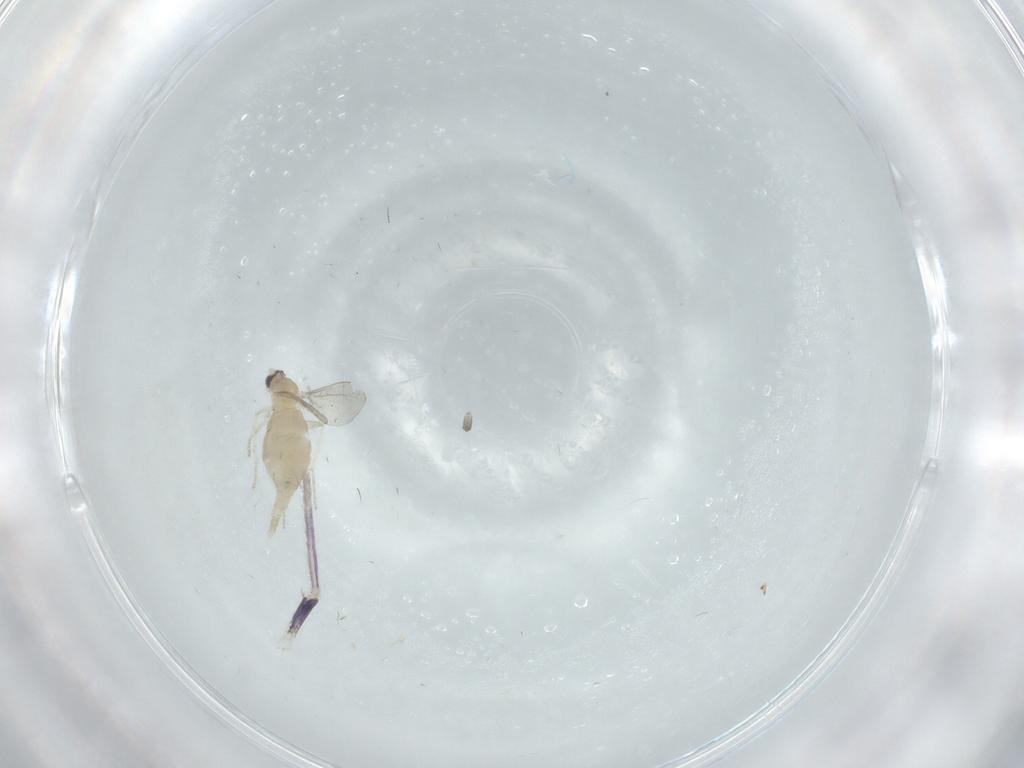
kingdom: Animalia
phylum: Arthropoda
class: Insecta
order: Diptera
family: Cecidomyiidae
